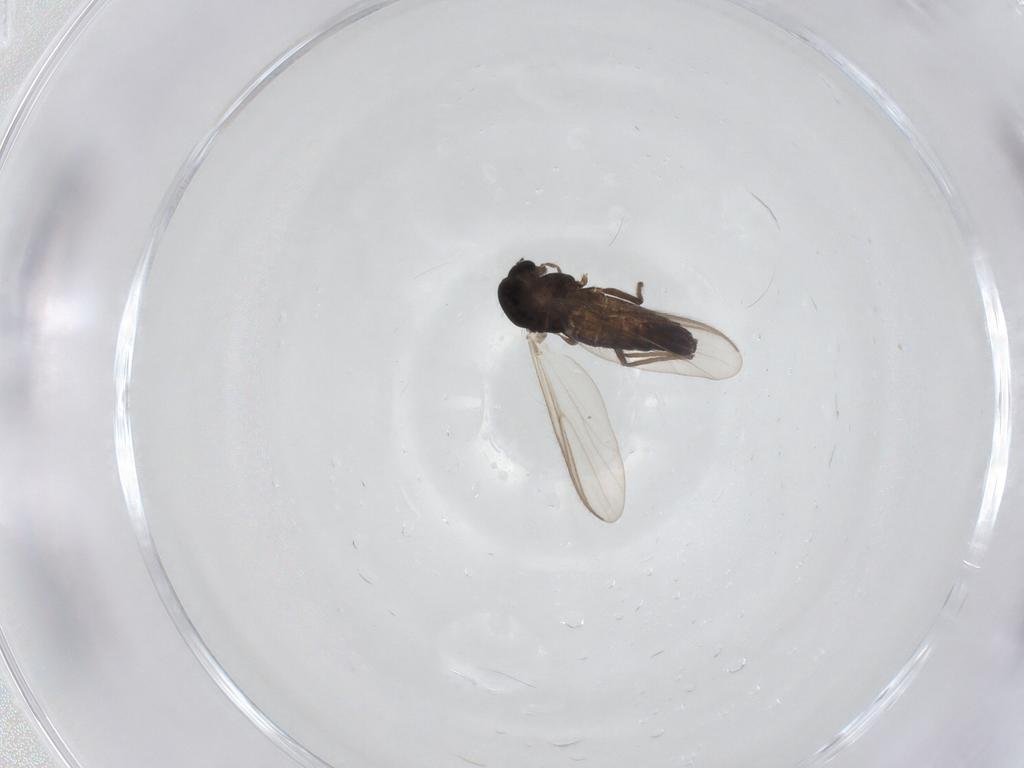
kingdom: Animalia
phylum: Arthropoda
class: Insecta
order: Diptera
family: Chironomidae
